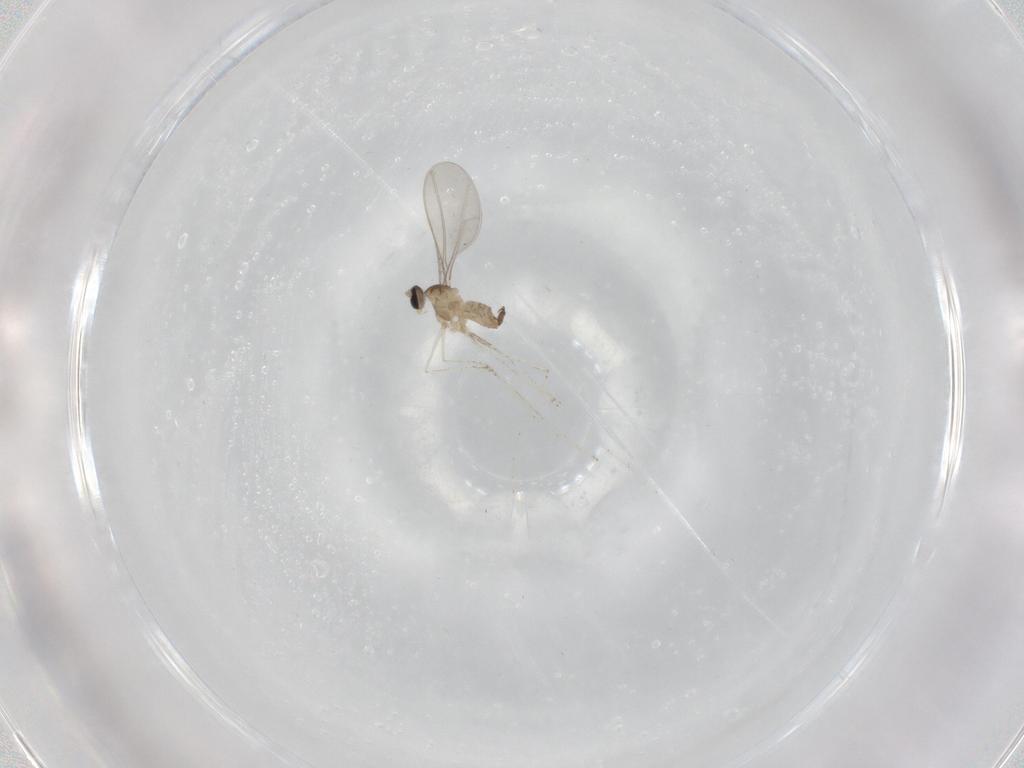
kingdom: Animalia
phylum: Arthropoda
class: Insecta
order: Diptera
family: Cecidomyiidae
